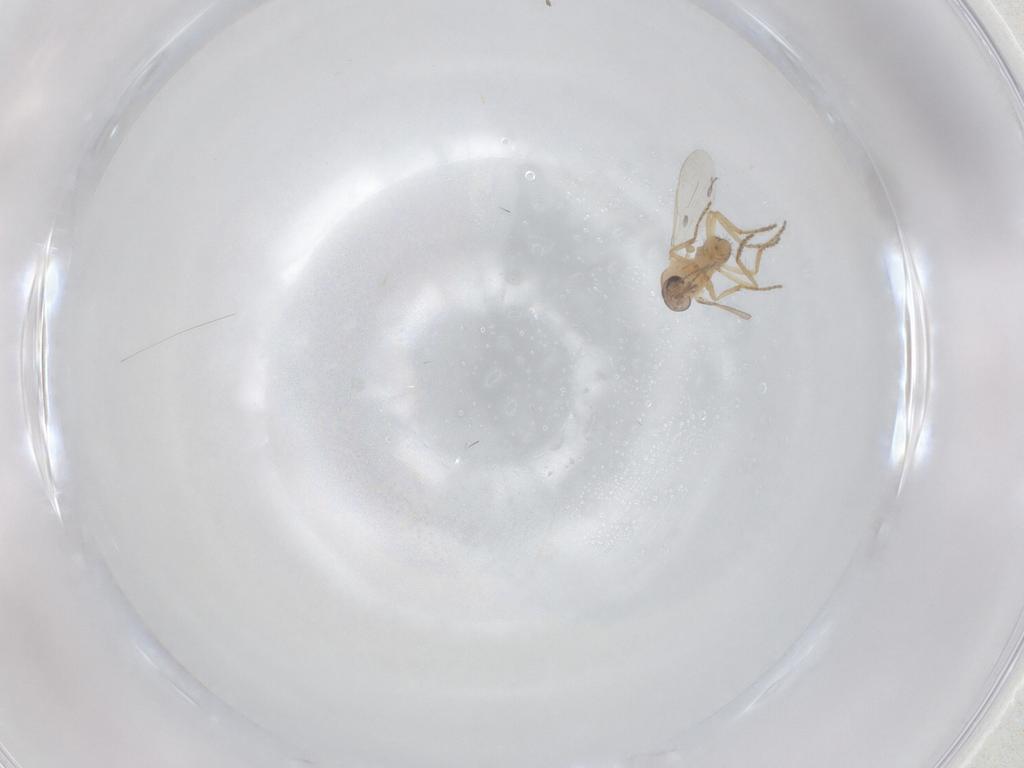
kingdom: Animalia
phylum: Arthropoda
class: Insecta
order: Diptera
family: Ceratopogonidae
